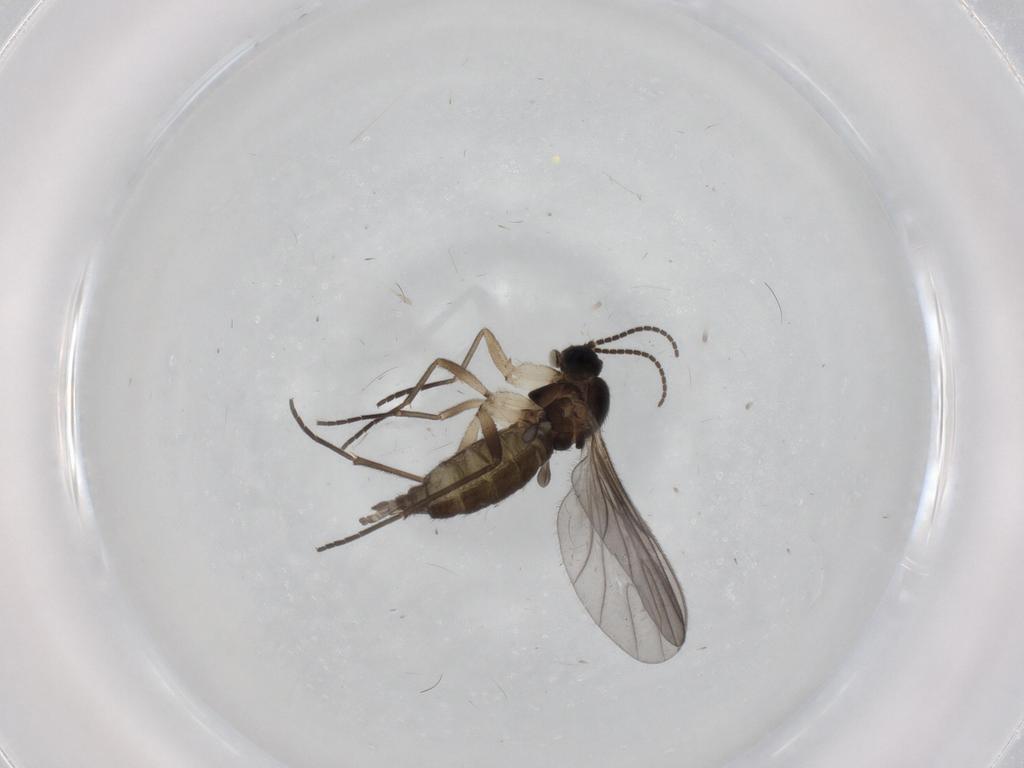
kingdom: Animalia
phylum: Arthropoda
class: Insecta
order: Diptera
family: Sciaridae
